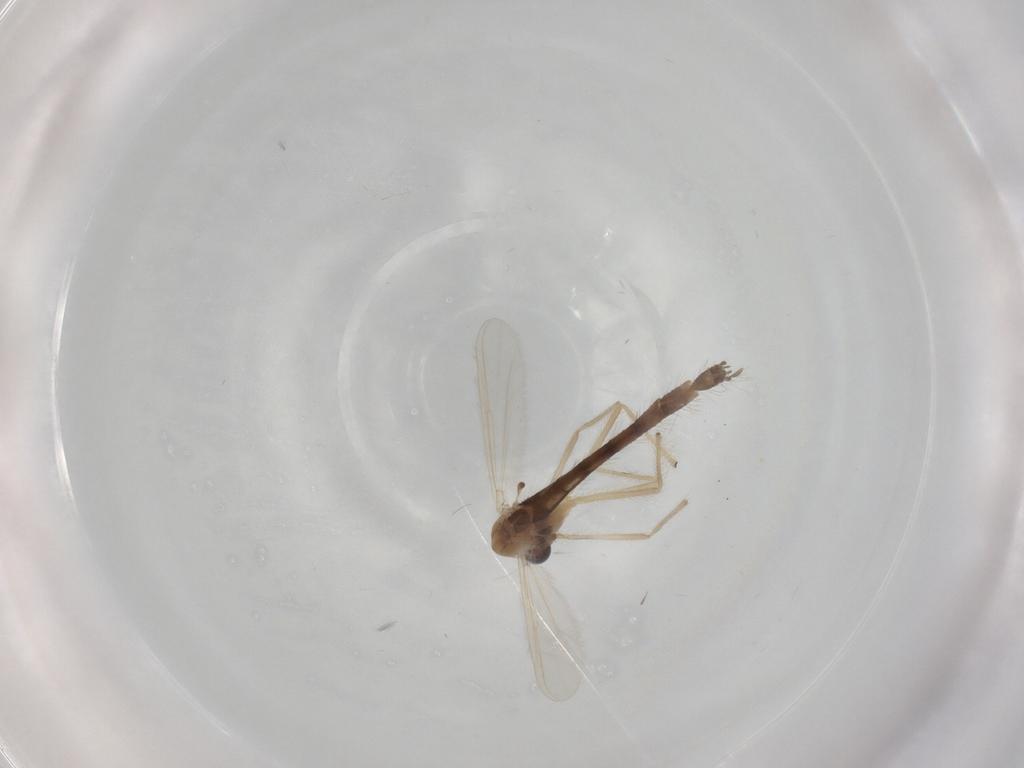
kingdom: Animalia
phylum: Arthropoda
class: Insecta
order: Diptera
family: Chironomidae
